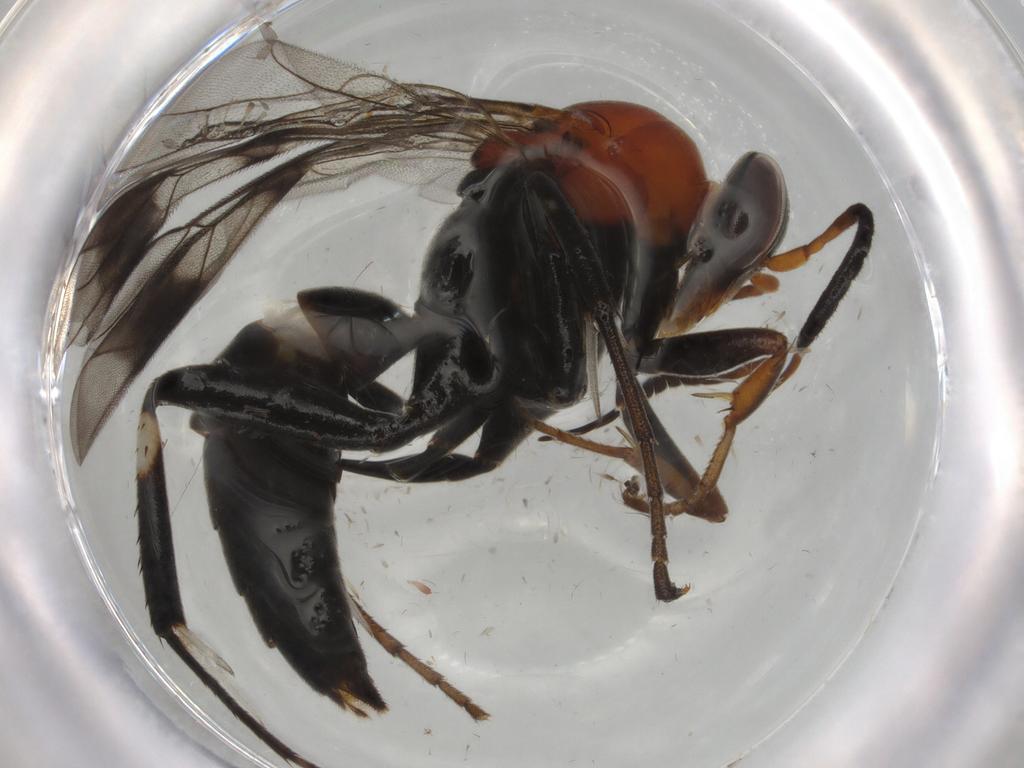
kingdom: Animalia
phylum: Arthropoda
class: Insecta
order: Hymenoptera
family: Pompilidae
